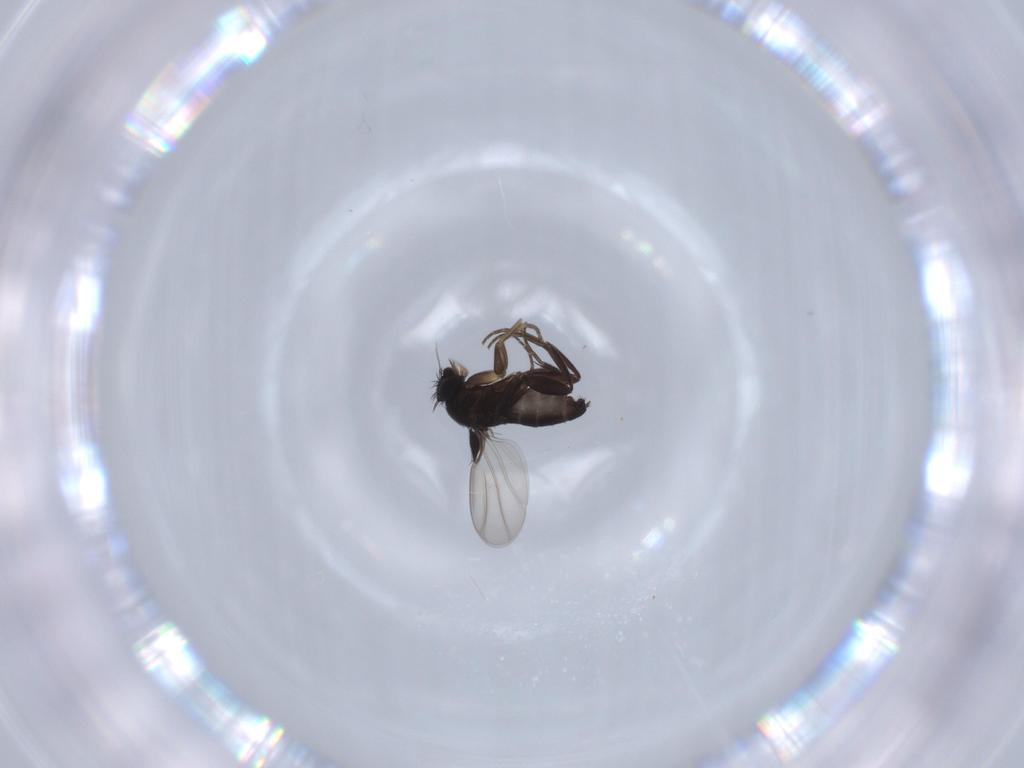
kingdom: Animalia
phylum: Arthropoda
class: Insecta
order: Diptera
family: Phoridae
